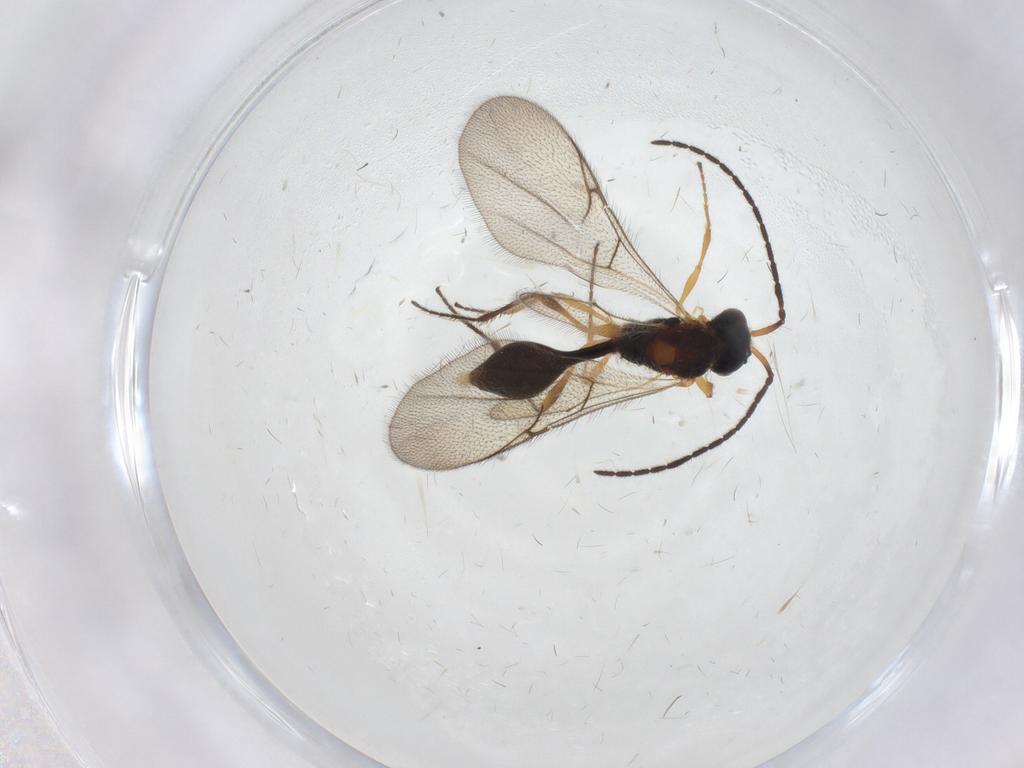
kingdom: Animalia
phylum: Arthropoda
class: Insecta
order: Hymenoptera
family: Diapriidae
